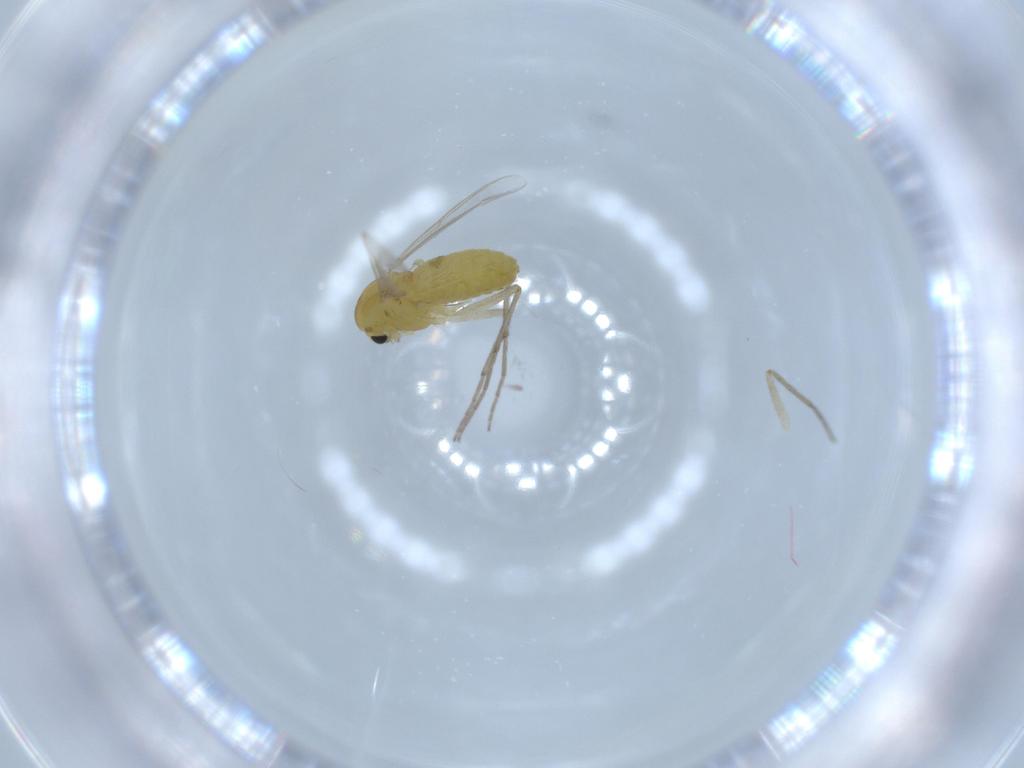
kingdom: Animalia
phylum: Arthropoda
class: Insecta
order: Diptera
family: Chironomidae
